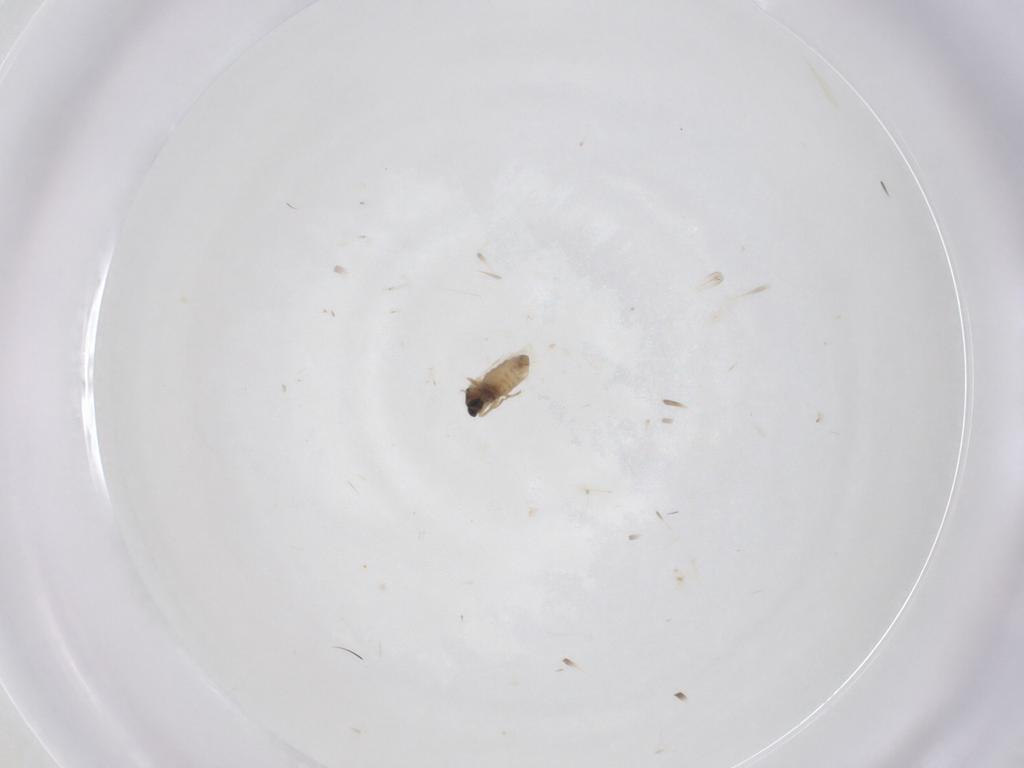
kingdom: Animalia
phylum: Arthropoda
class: Insecta
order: Diptera
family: Cecidomyiidae
